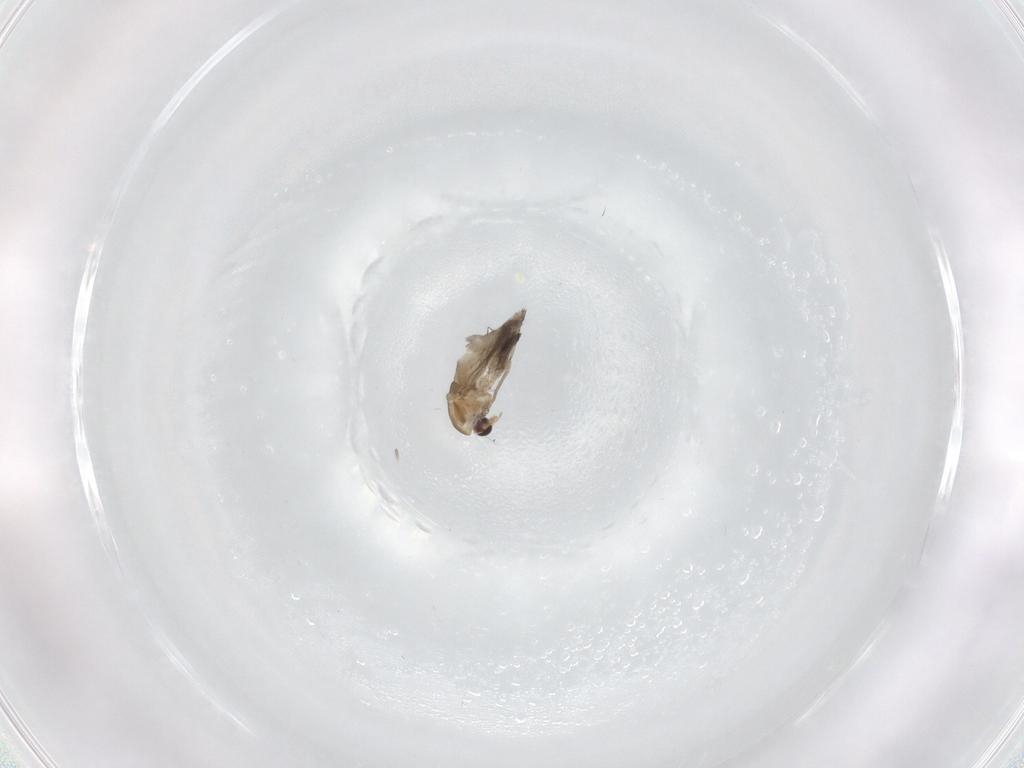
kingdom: Animalia
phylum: Arthropoda
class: Insecta
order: Diptera
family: Chironomidae
